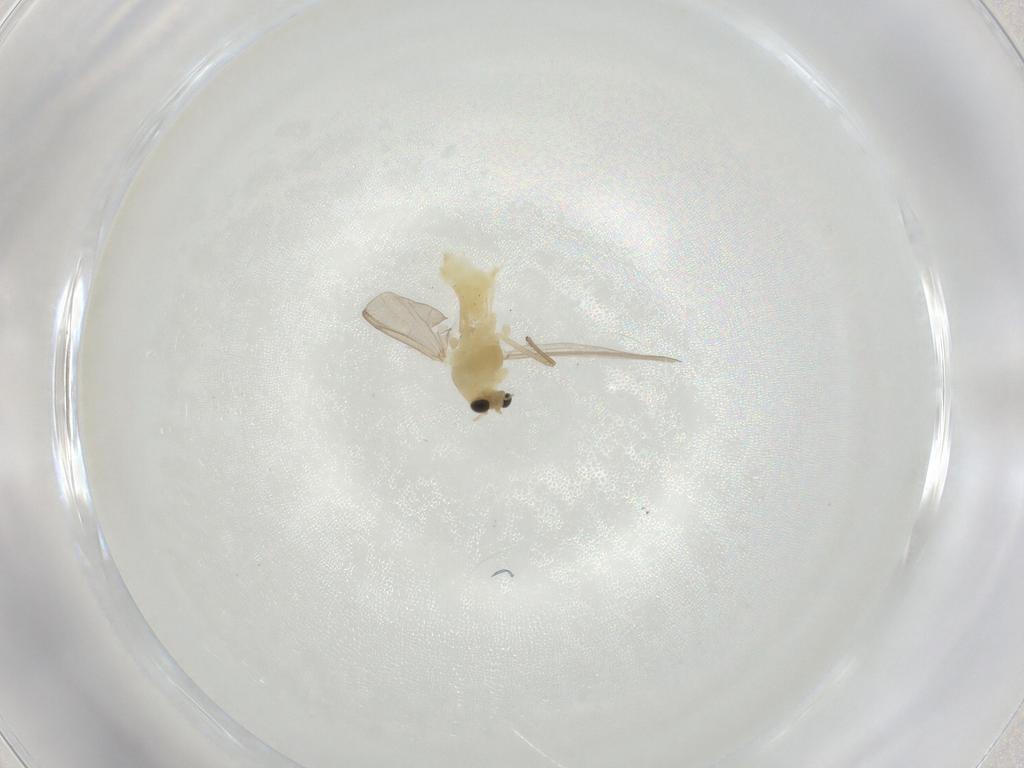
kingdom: Animalia
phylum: Arthropoda
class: Insecta
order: Diptera
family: Chironomidae
